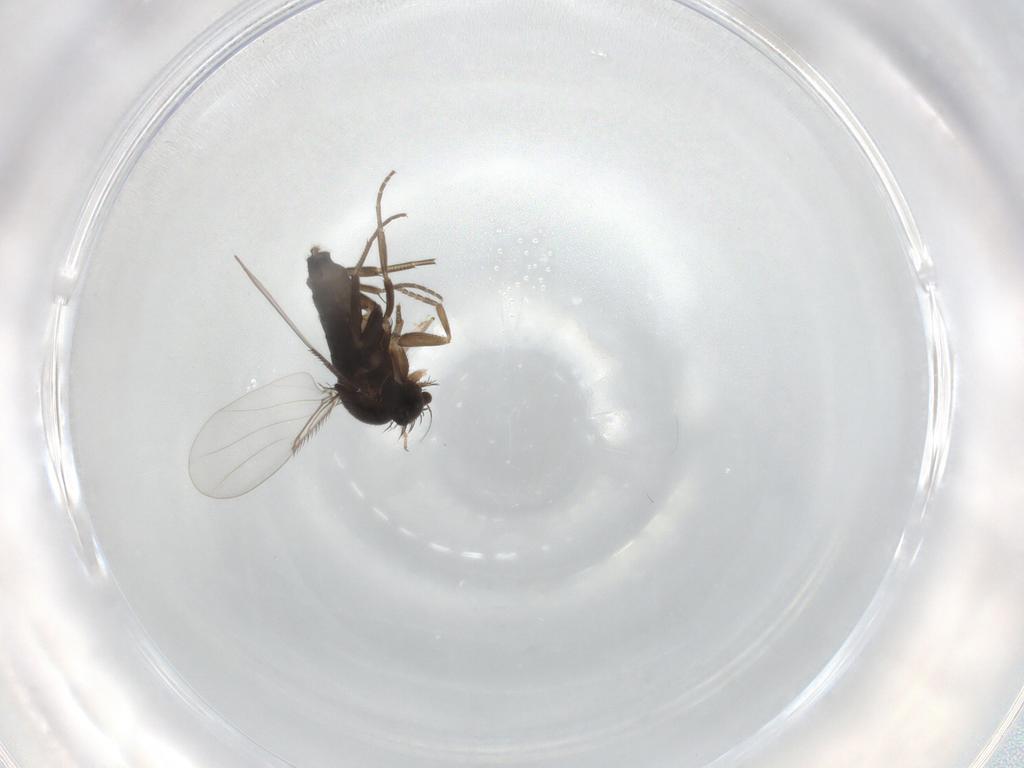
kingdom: Animalia
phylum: Arthropoda
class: Insecta
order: Diptera
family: Phoridae
